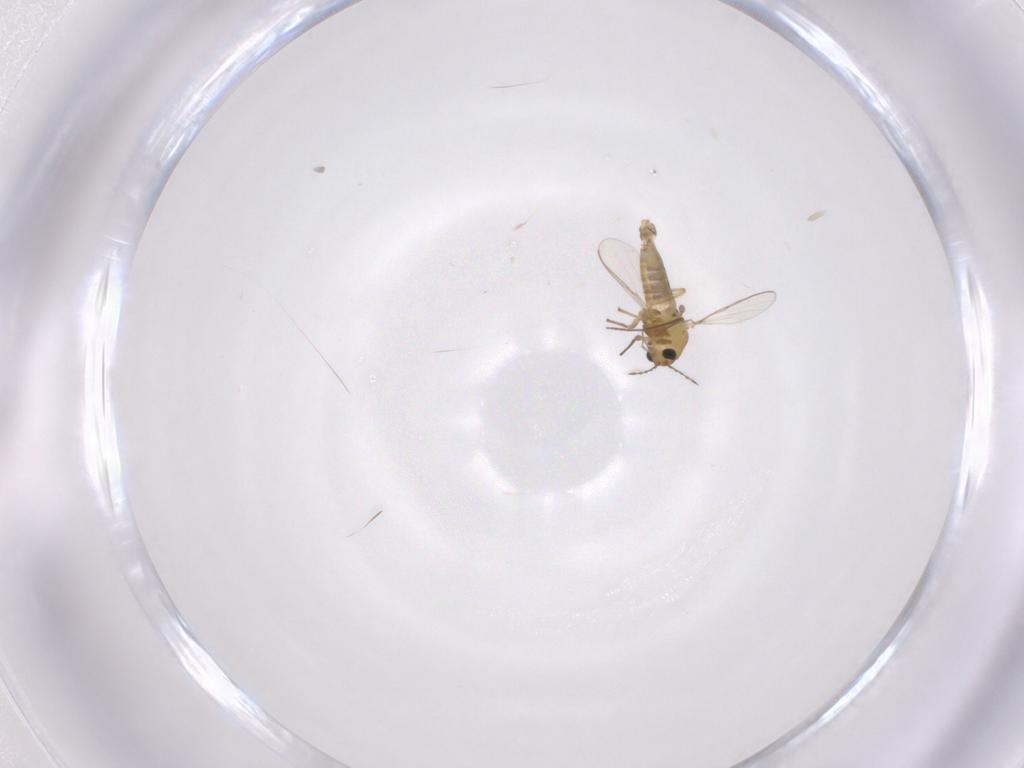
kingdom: Animalia
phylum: Arthropoda
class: Insecta
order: Diptera
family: Chironomidae
